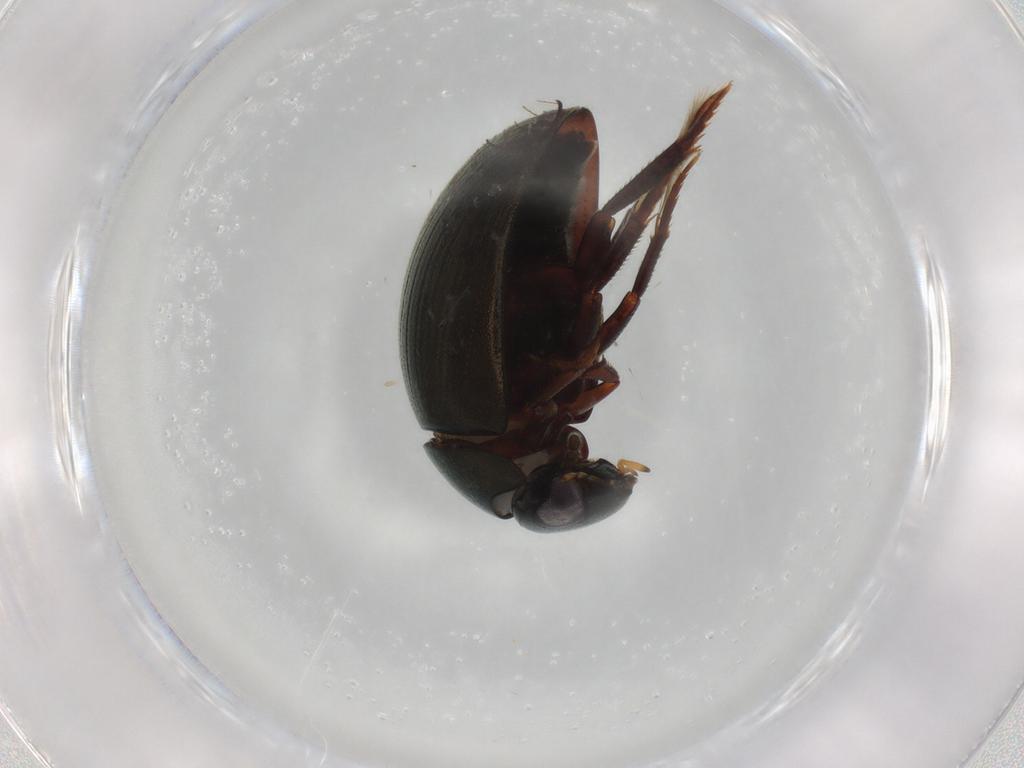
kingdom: Animalia
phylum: Arthropoda
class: Insecta
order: Coleoptera
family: Hydrophilidae
